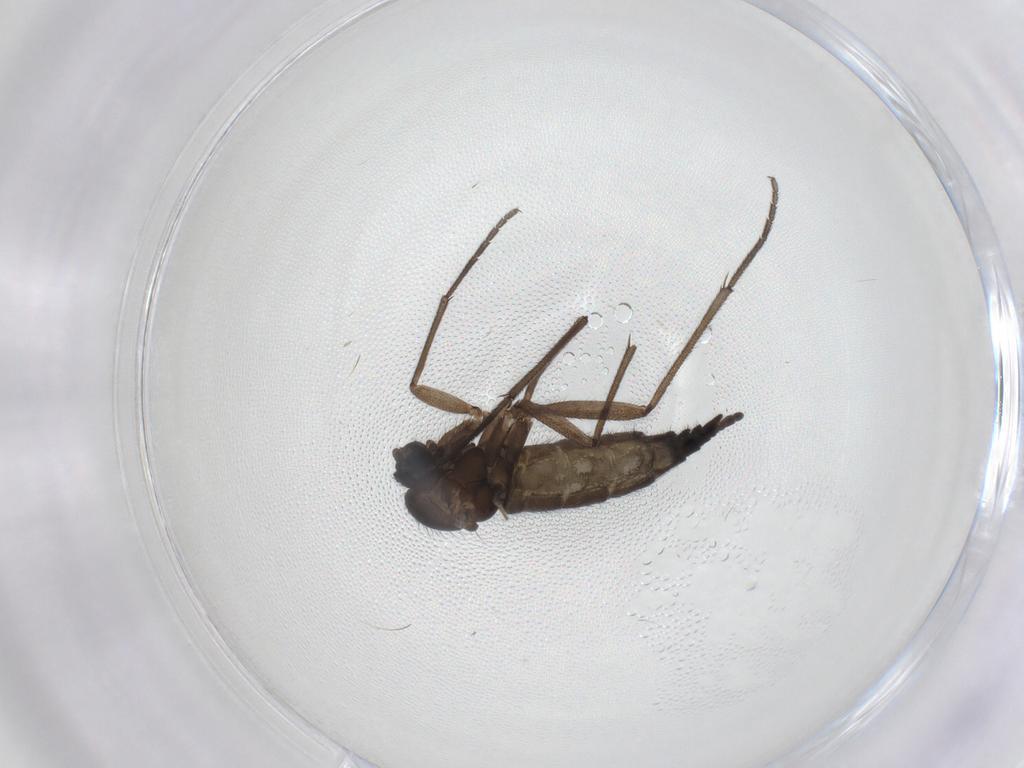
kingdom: Animalia
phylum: Arthropoda
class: Insecta
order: Diptera
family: Sciaridae
